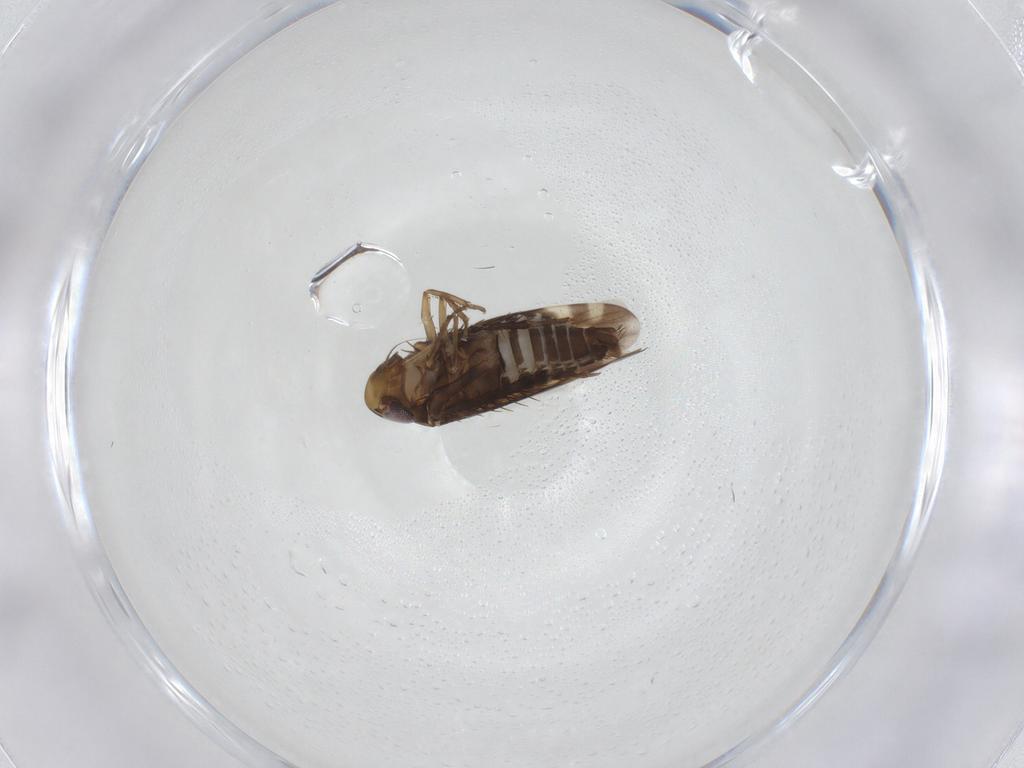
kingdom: Animalia
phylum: Arthropoda
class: Insecta
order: Hemiptera
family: Cicadellidae
